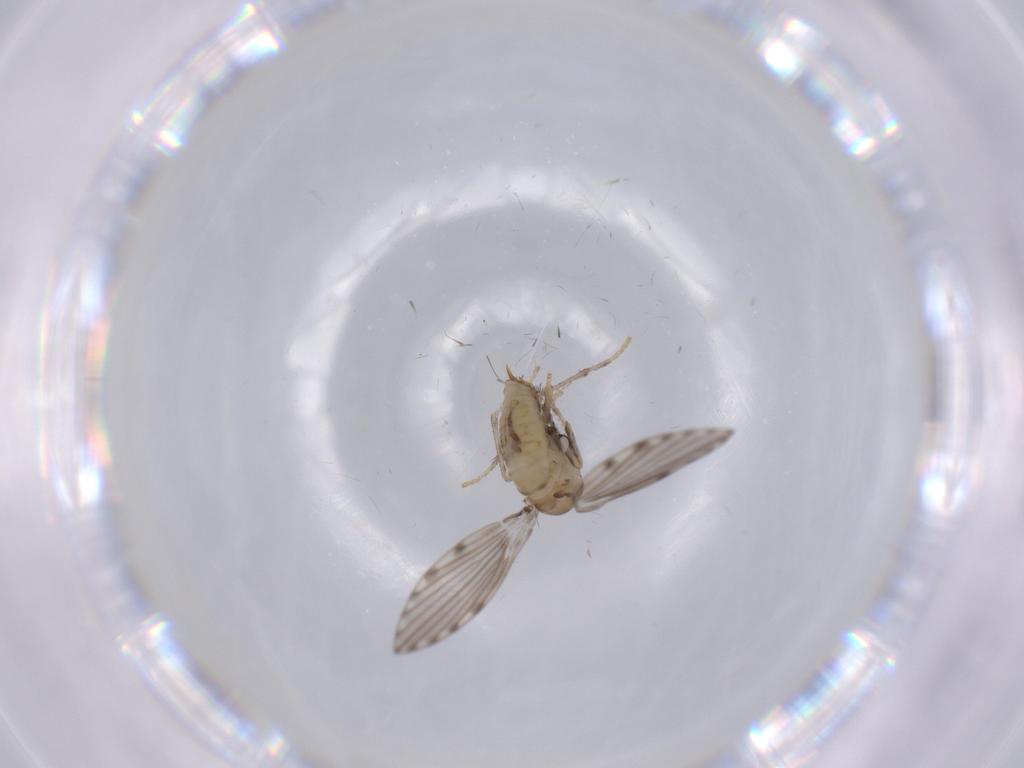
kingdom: Animalia
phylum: Arthropoda
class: Insecta
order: Diptera
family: Psychodidae
